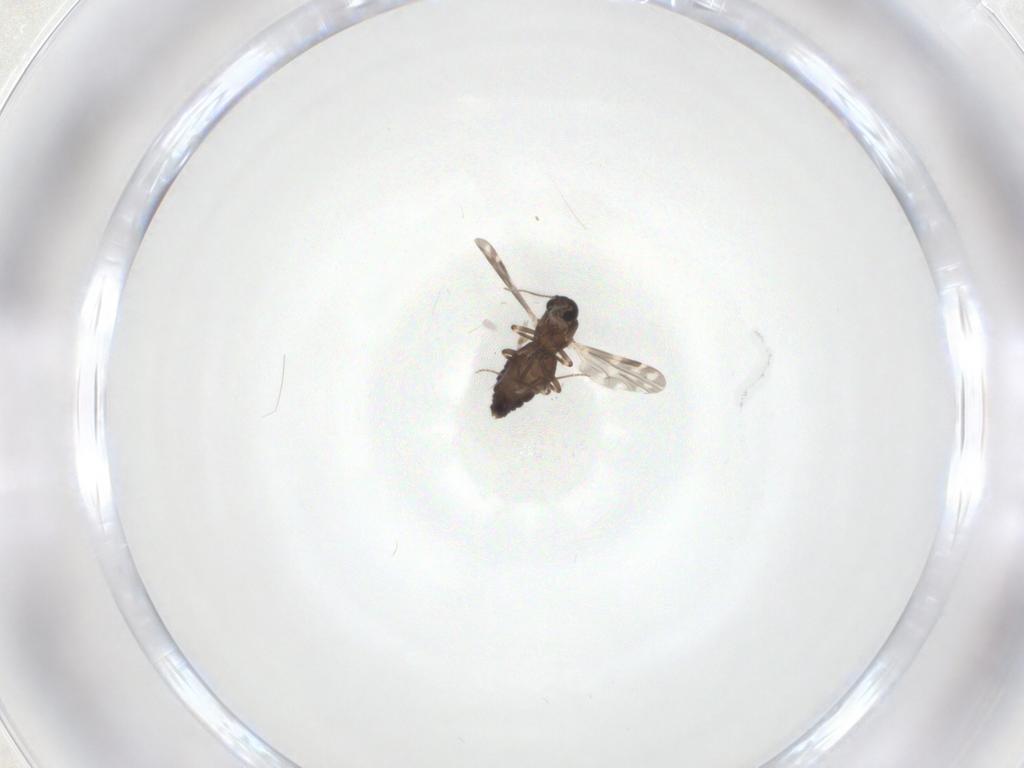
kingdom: Animalia
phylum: Arthropoda
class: Insecta
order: Diptera
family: Ceratopogonidae
